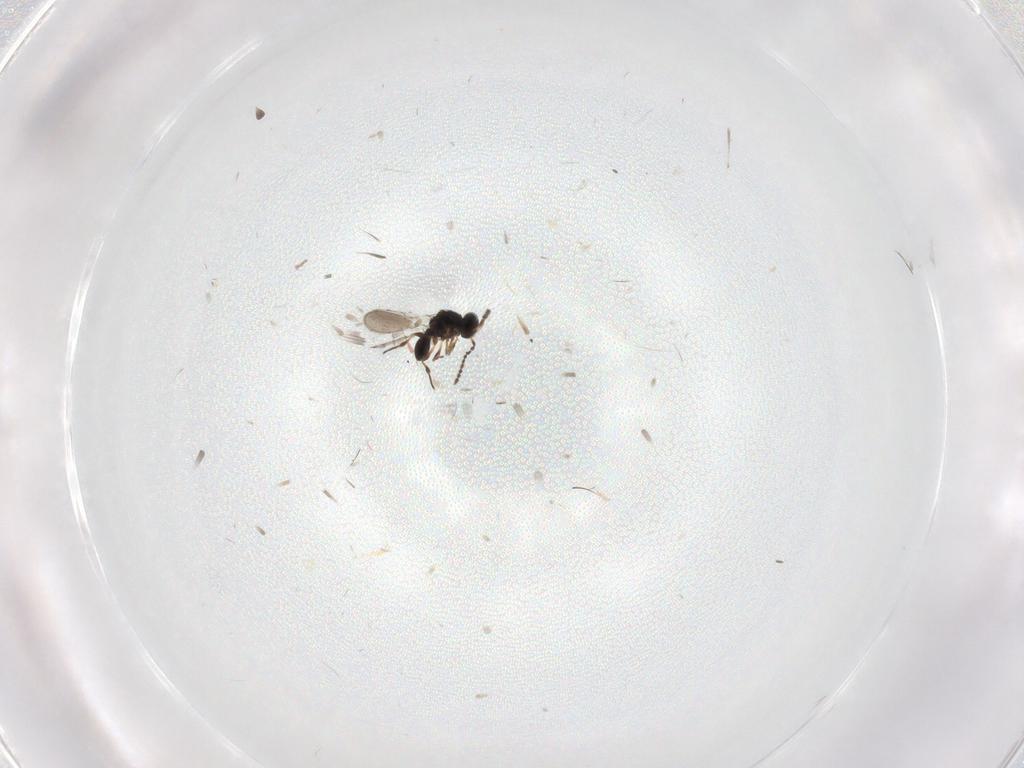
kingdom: Animalia
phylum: Arthropoda
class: Insecta
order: Hymenoptera
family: Platygastridae
